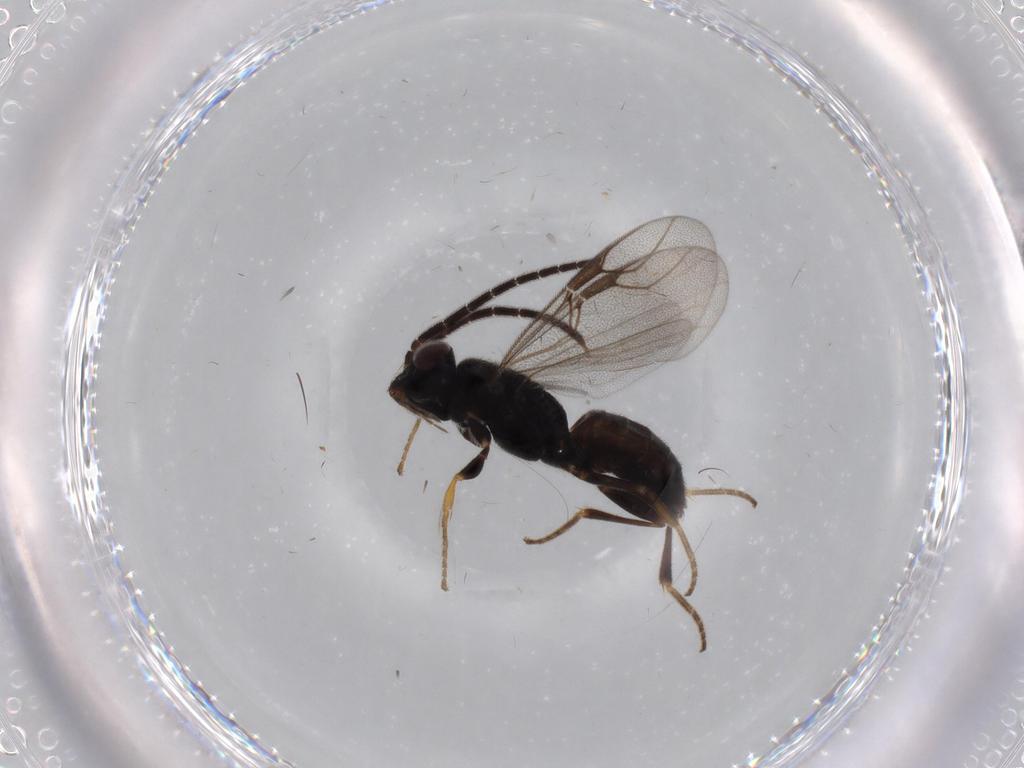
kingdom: Animalia
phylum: Arthropoda
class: Insecta
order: Hymenoptera
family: Dryinidae
